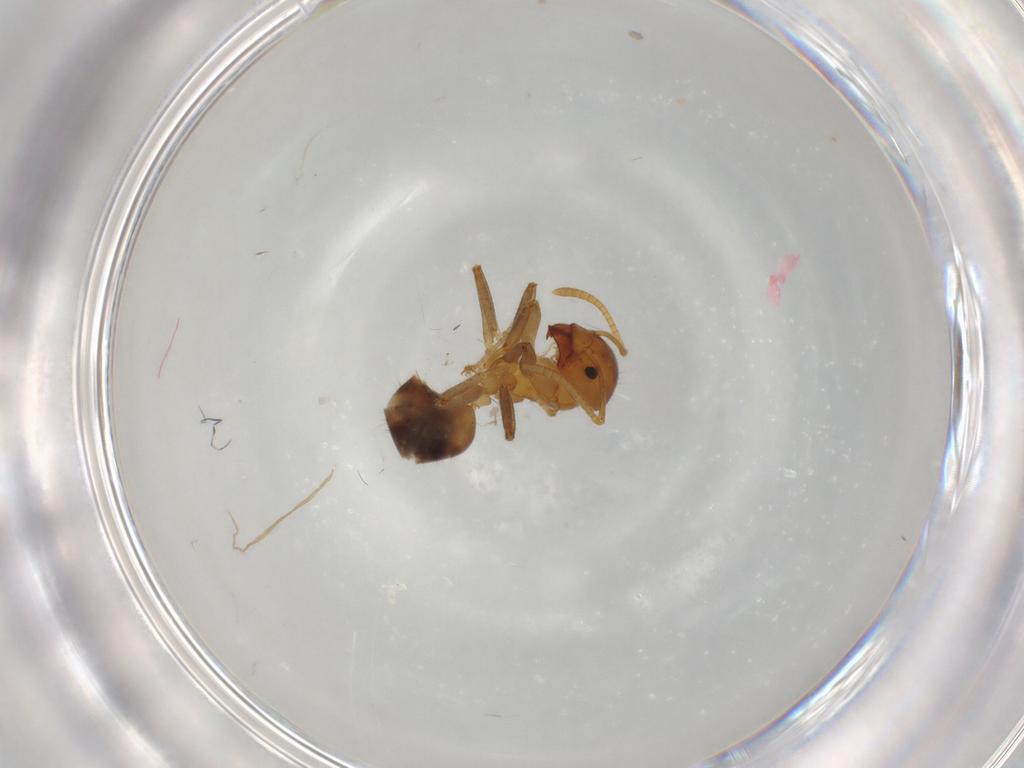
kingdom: Animalia
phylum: Arthropoda
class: Insecta
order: Hymenoptera
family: Formicidae
